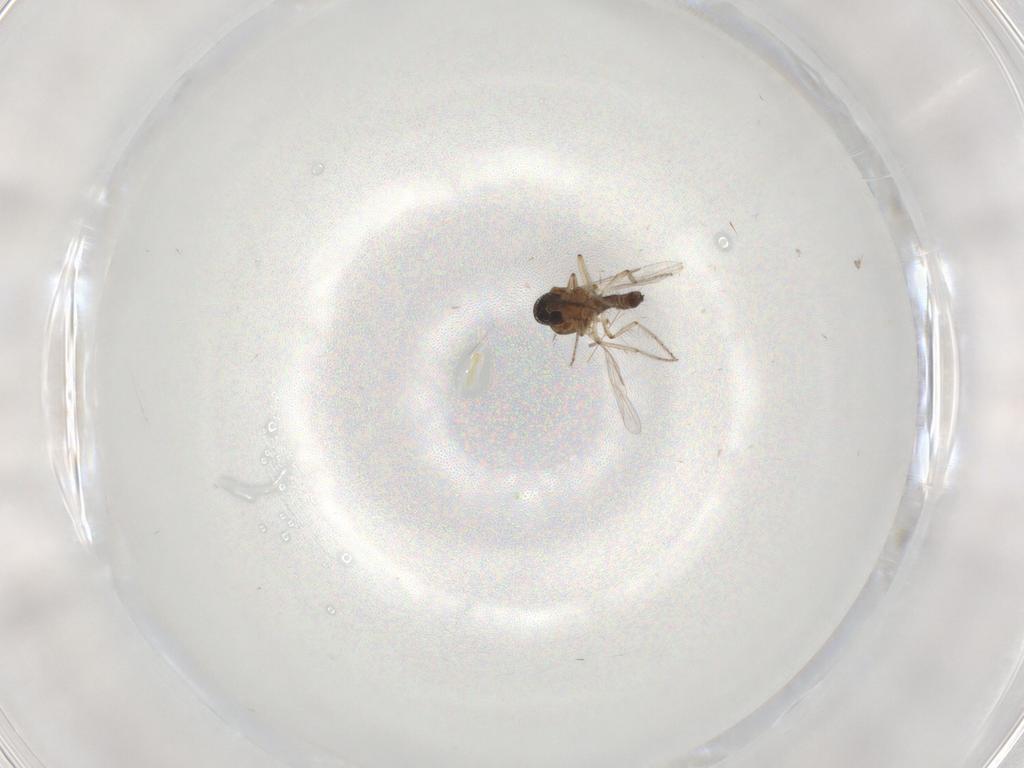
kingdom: Animalia
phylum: Arthropoda
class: Insecta
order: Diptera
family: Ceratopogonidae
